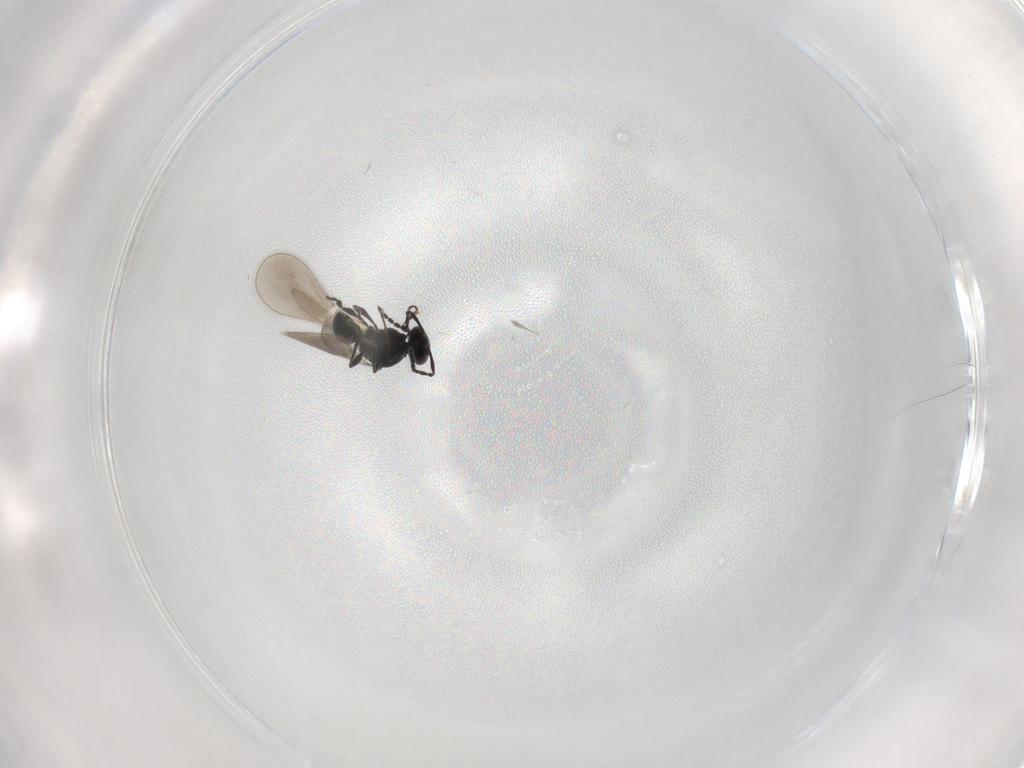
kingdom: Animalia
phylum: Arthropoda
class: Insecta
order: Hymenoptera
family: Platygastridae
